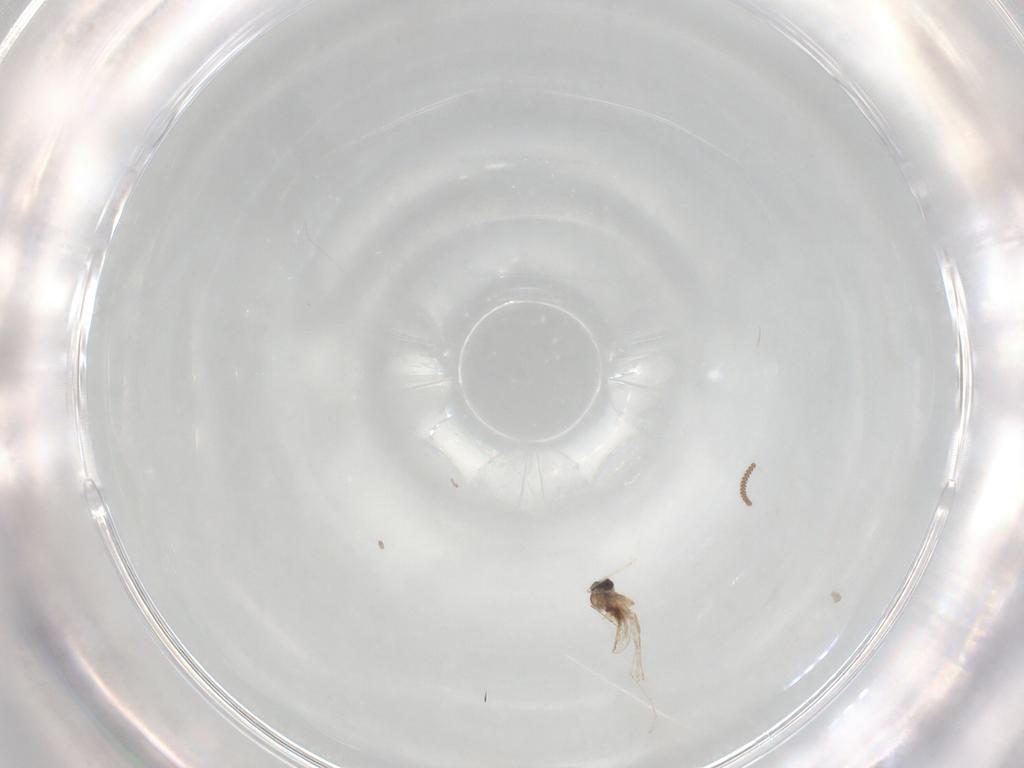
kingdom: Animalia
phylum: Arthropoda
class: Insecta
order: Diptera
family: Cecidomyiidae
